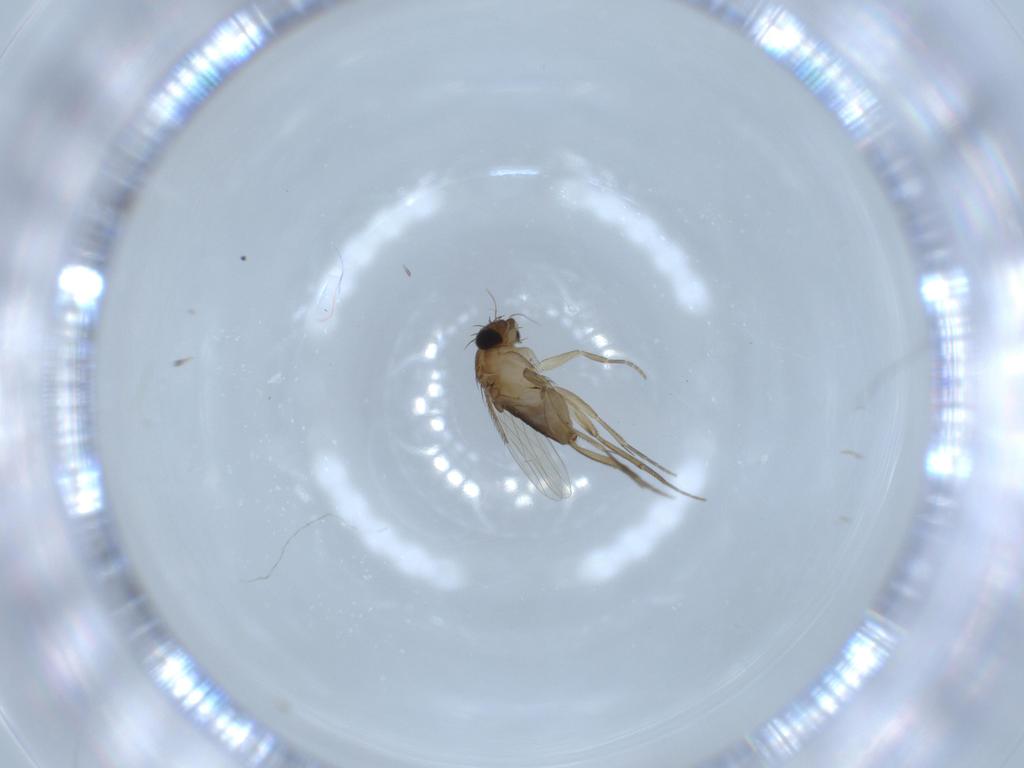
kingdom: Animalia
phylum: Arthropoda
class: Insecta
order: Diptera
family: Phoridae
